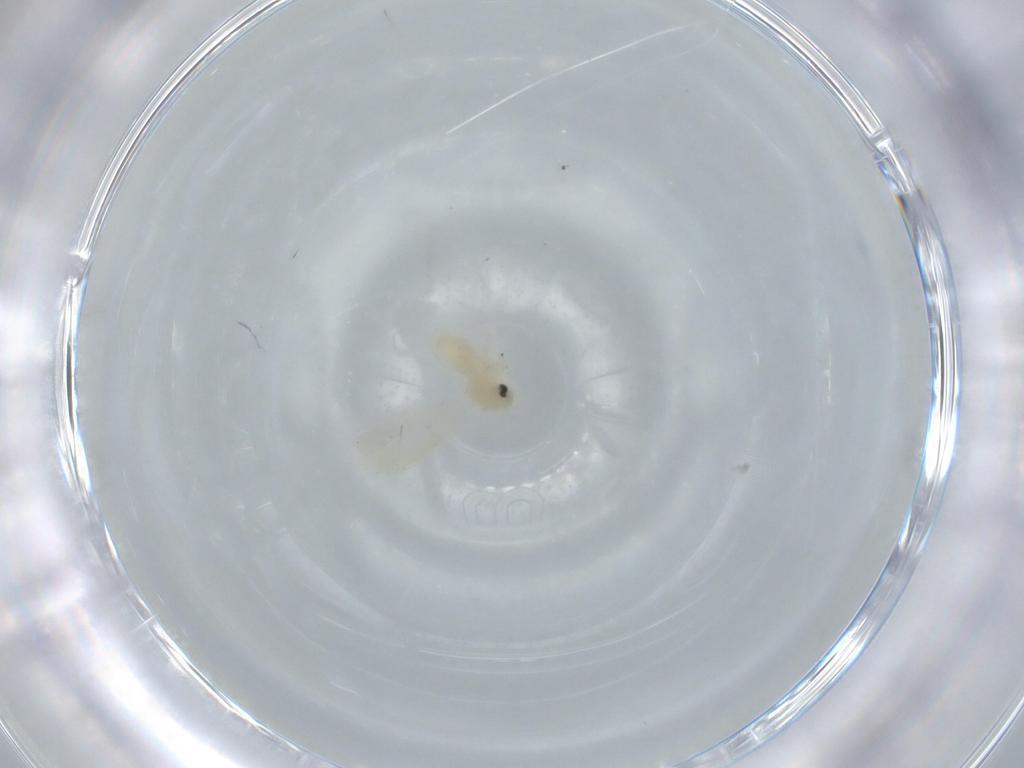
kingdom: Animalia
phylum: Arthropoda
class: Insecta
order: Hemiptera
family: Aleyrodidae
